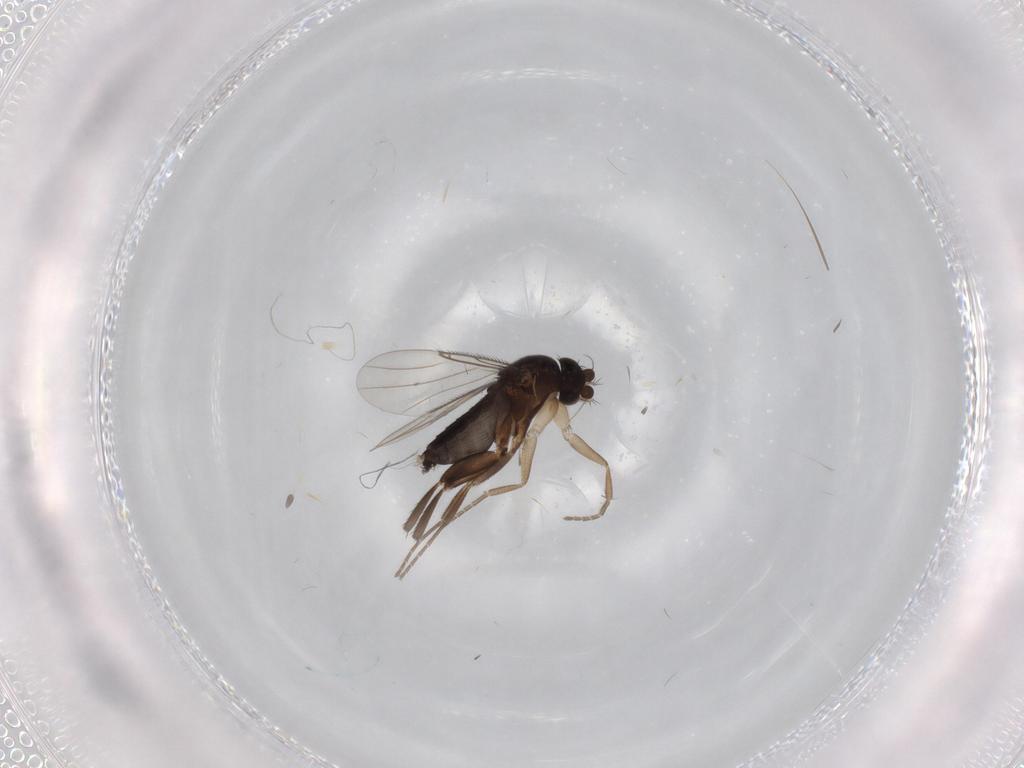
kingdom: Animalia
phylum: Arthropoda
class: Insecta
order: Diptera
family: Phoridae
